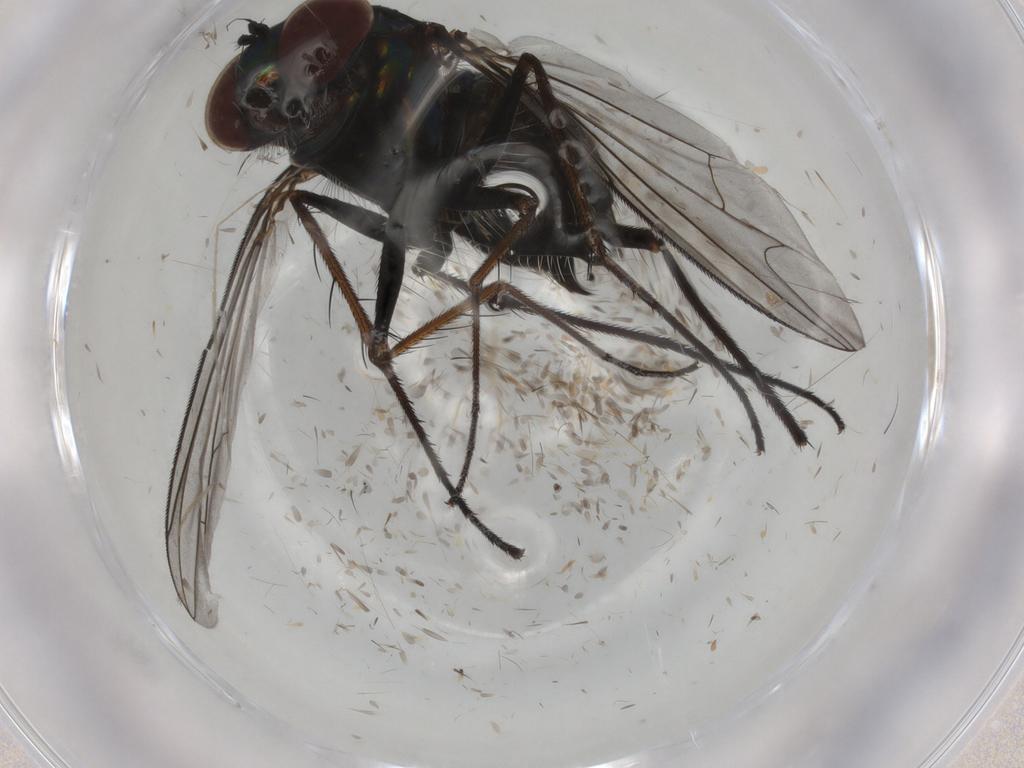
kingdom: Animalia
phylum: Arthropoda
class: Insecta
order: Diptera
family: Dolichopodidae
